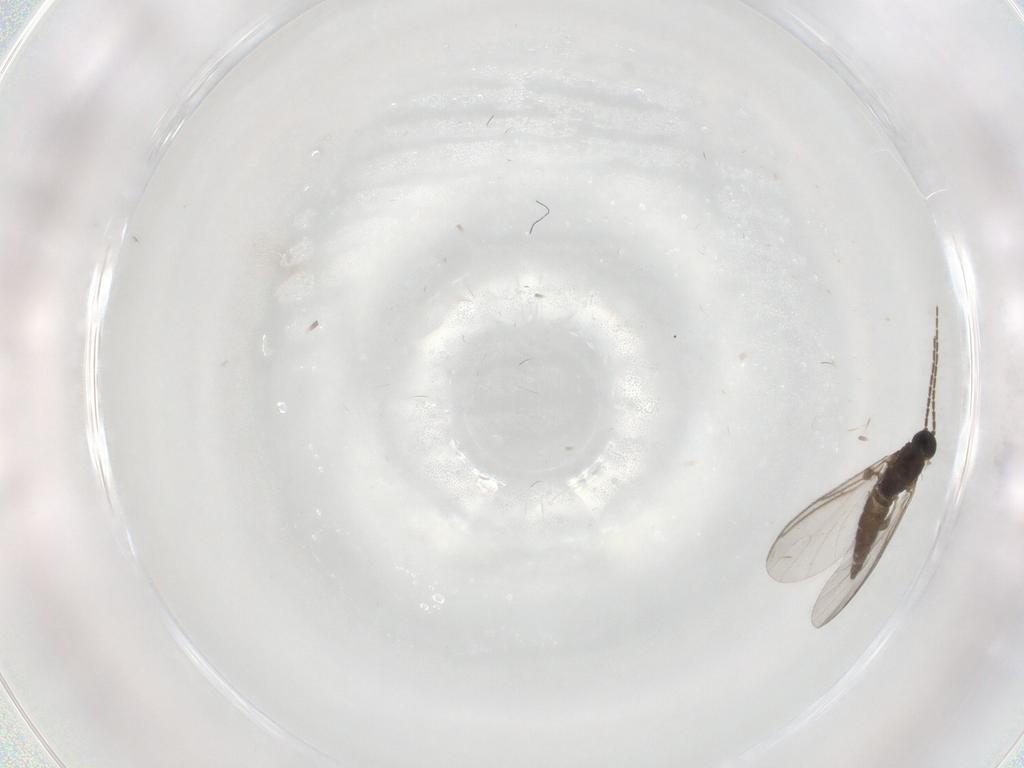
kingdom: Animalia
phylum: Arthropoda
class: Insecta
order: Diptera
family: Sciaridae
